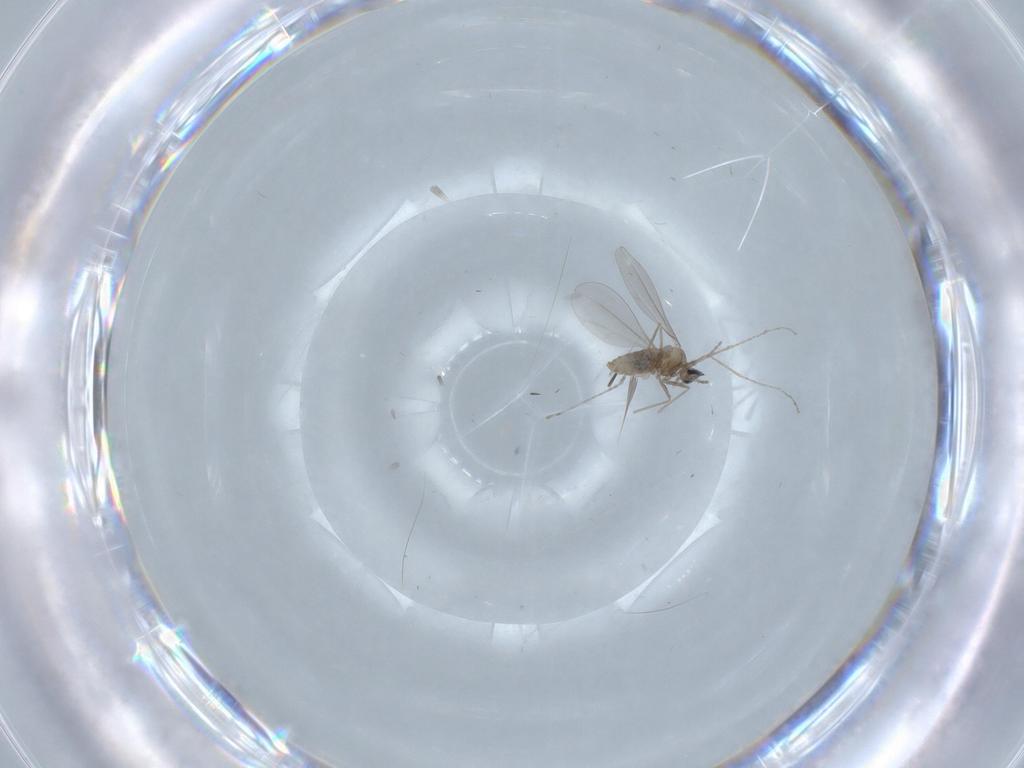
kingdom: Animalia
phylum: Arthropoda
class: Insecta
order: Diptera
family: Cecidomyiidae
